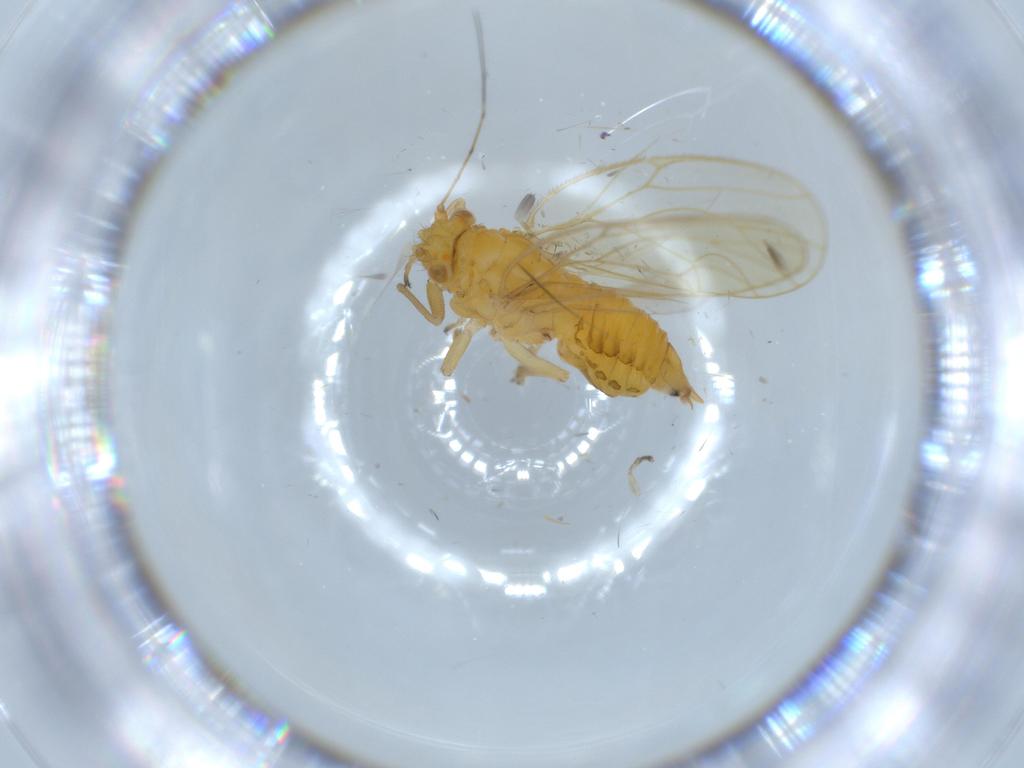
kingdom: Animalia
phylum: Arthropoda
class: Insecta
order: Hemiptera
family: Psyllidae
